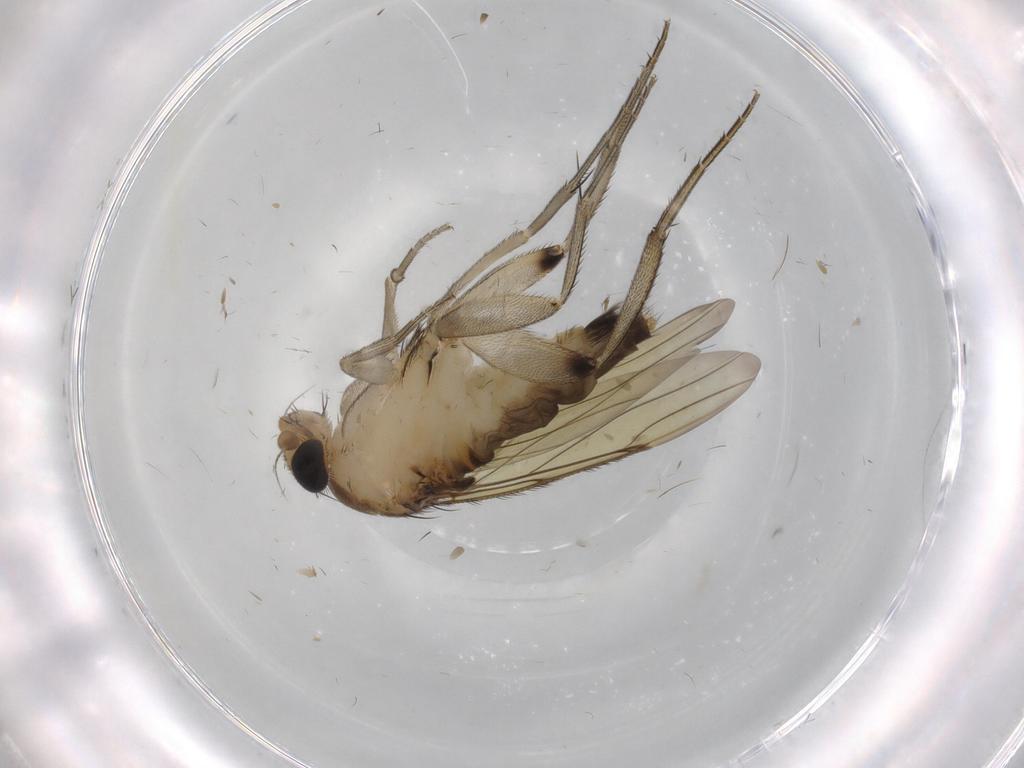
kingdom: Animalia
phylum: Arthropoda
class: Insecta
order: Diptera
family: Phoridae
